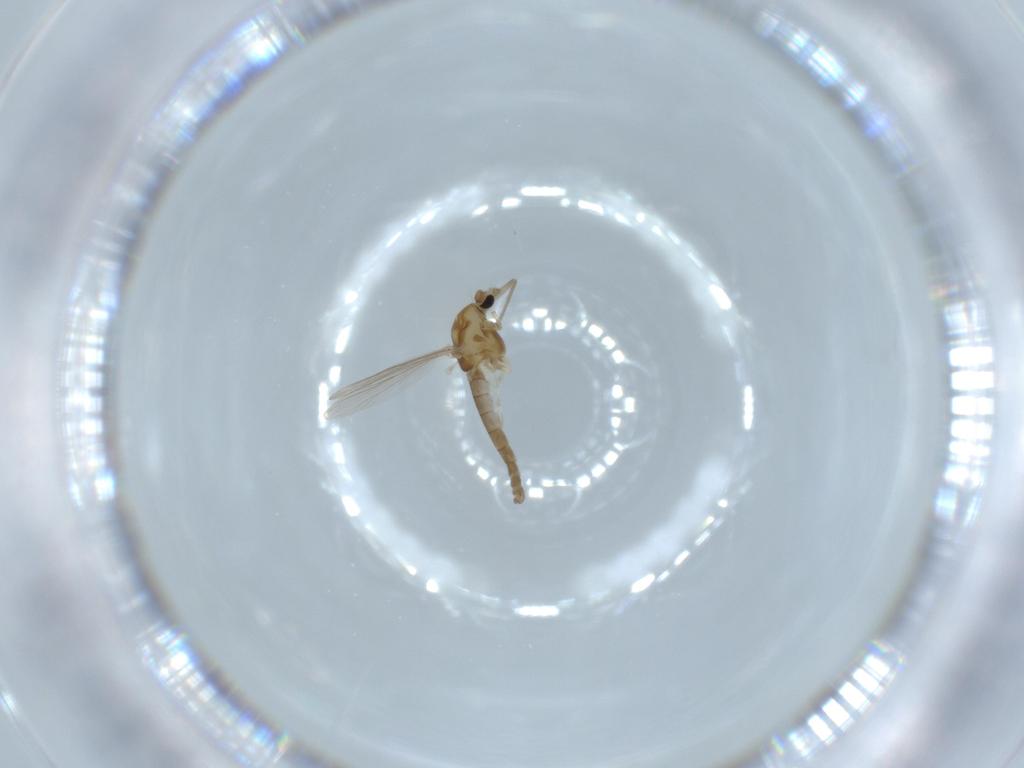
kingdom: Animalia
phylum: Arthropoda
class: Insecta
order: Diptera
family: Chironomidae
